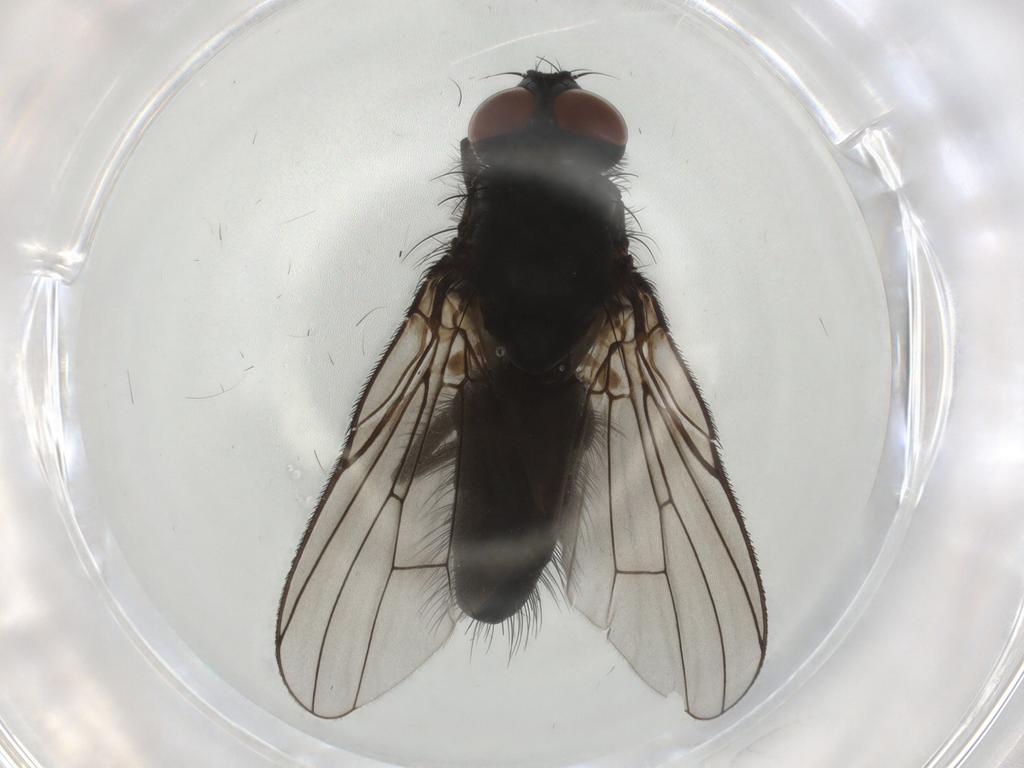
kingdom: Animalia
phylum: Arthropoda
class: Insecta
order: Diptera
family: Muscidae
